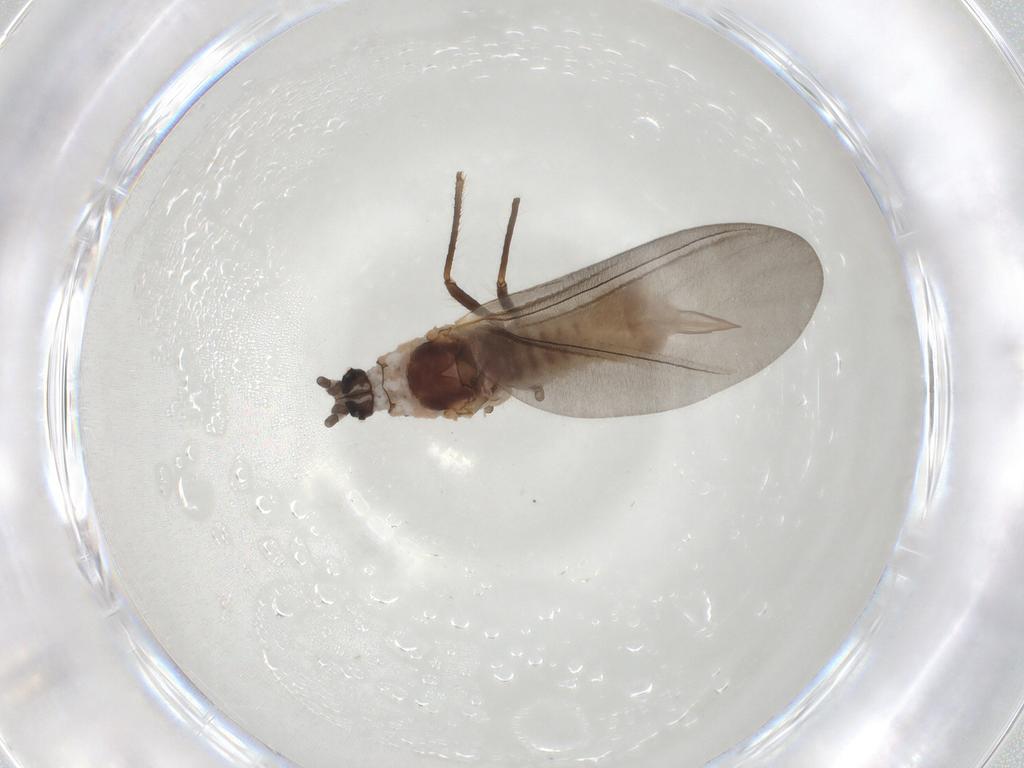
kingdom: Animalia
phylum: Arthropoda
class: Insecta
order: Hemiptera
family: Putoidae
